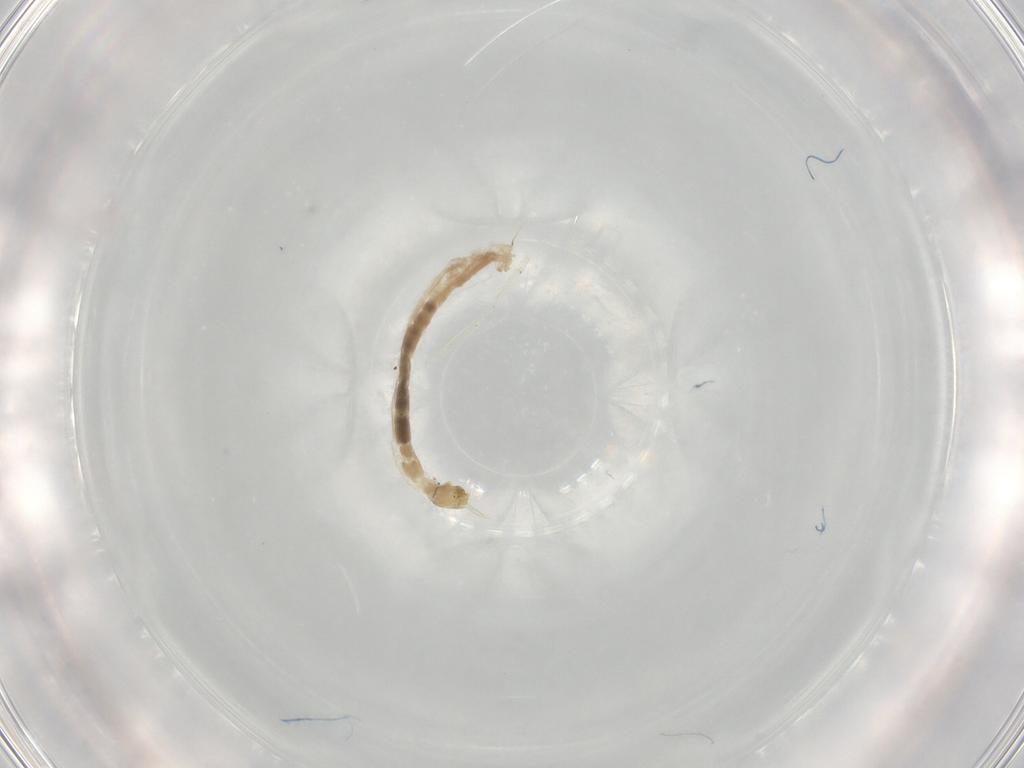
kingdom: Animalia
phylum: Arthropoda
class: Insecta
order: Diptera
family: Chironomidae
